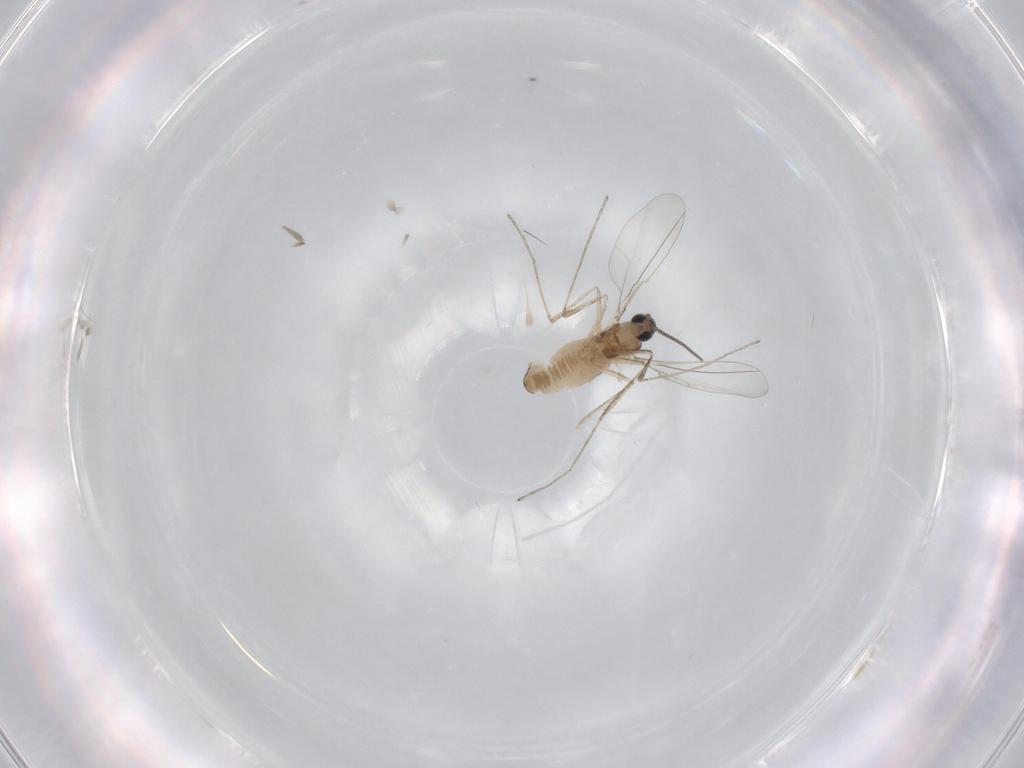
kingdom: Animalia
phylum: Arthropoda
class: Insecta
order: Diptera
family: Cecidomyiidae
